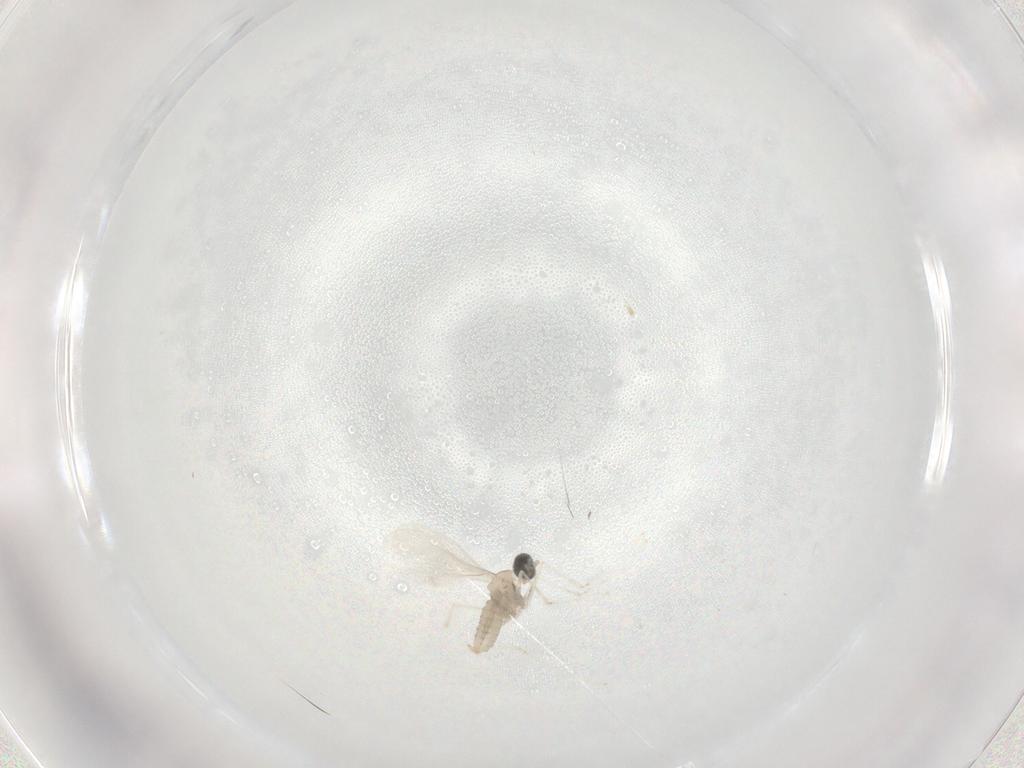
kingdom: Animalia
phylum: Arthropoda
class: Insecta
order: Diptera
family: Cecidomyiidae
